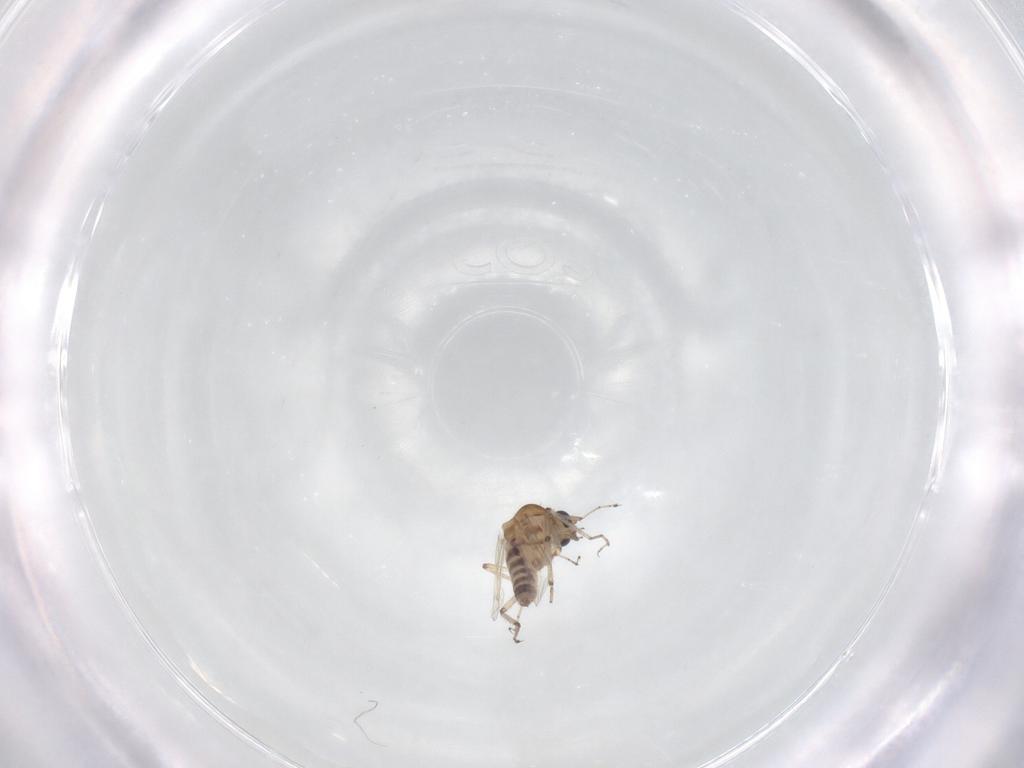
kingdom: Animalia
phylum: Arthropoda
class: Insecta
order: Diptera
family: Ceratopogonidae
